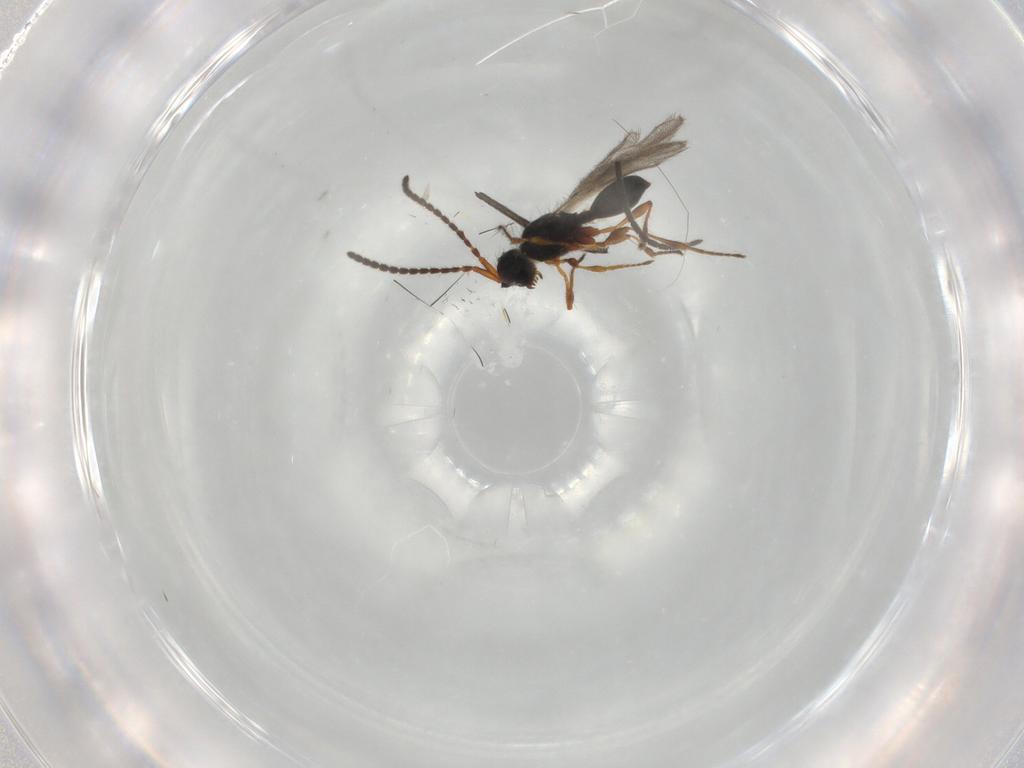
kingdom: Animalia
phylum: Arthropoda
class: Insecta
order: Hymenoptera
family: Diapriidae
